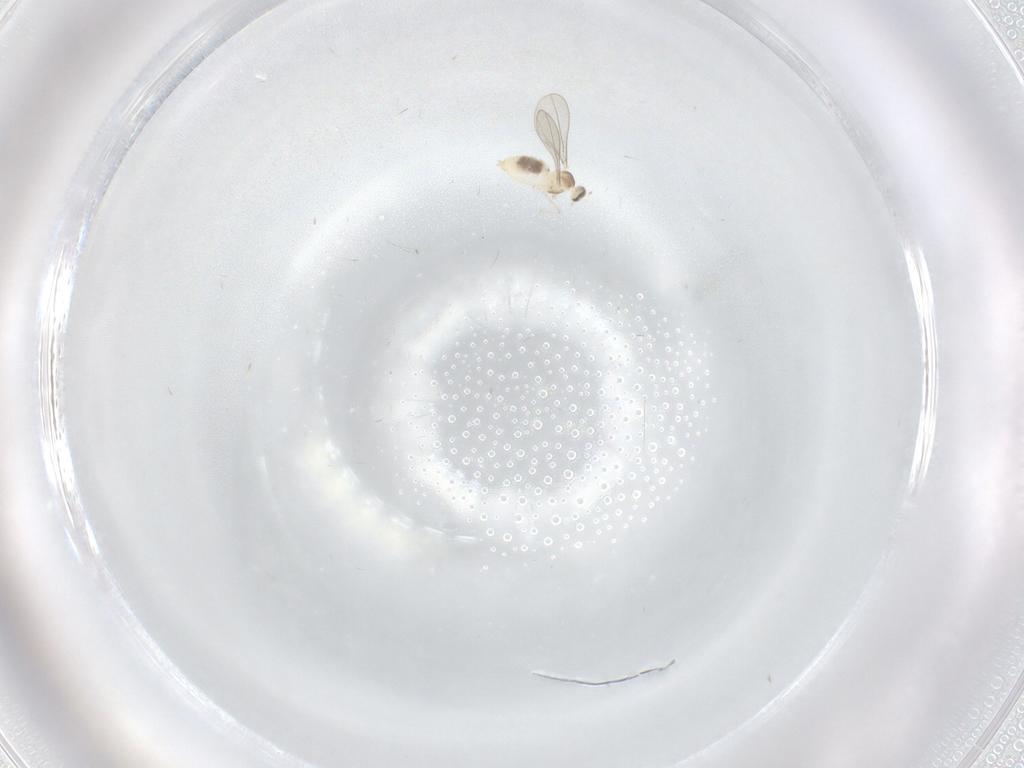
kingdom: Animalia
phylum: Arthropoda
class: Insecta
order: Diptera
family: Cecidomyiidae
